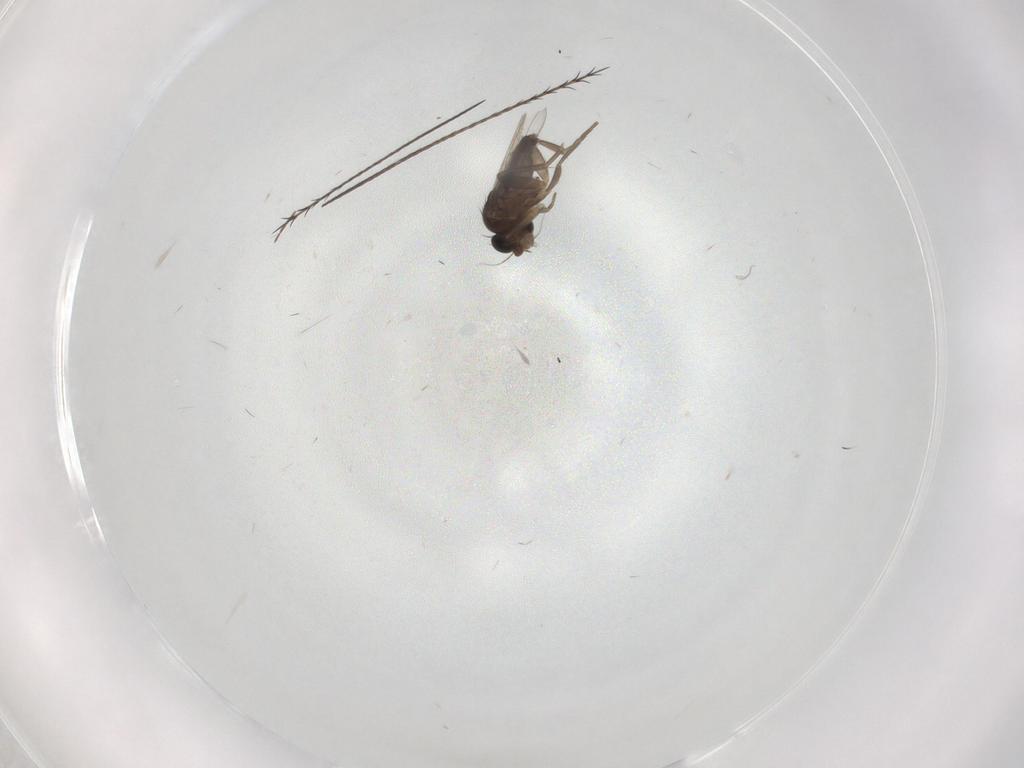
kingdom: Animalia
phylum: Arthropoda
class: Insecta
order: Diptera
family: Phoridae
